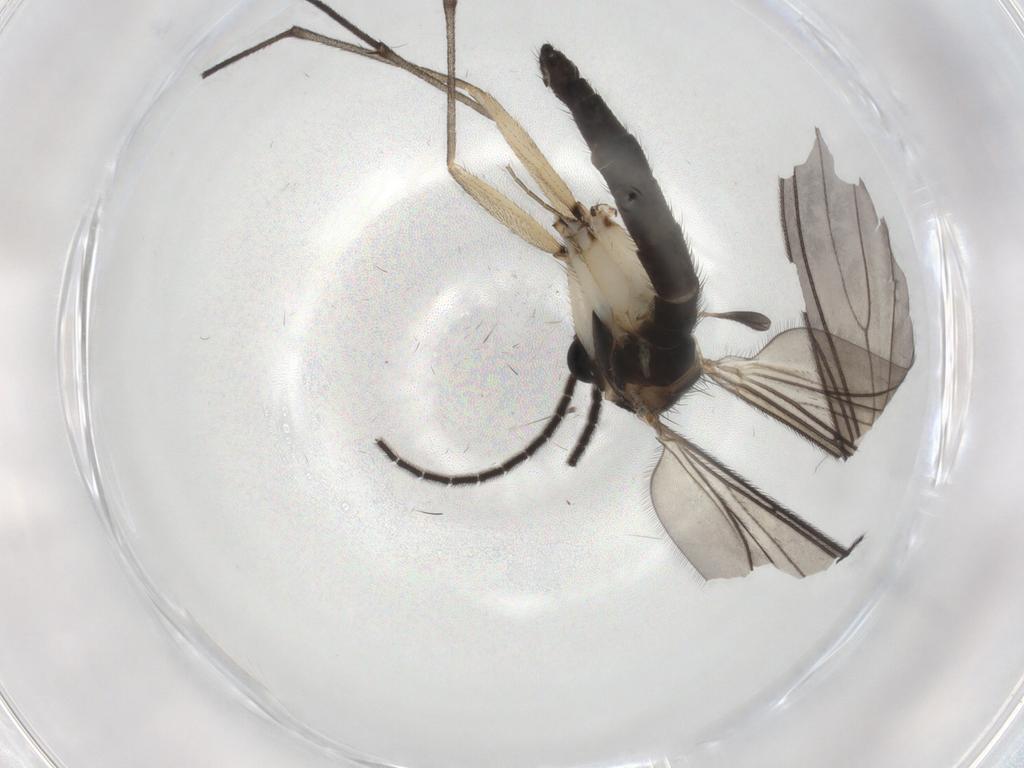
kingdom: Animalia
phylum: Arthropoda
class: Insecta
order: Diptera
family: Sciaridae
